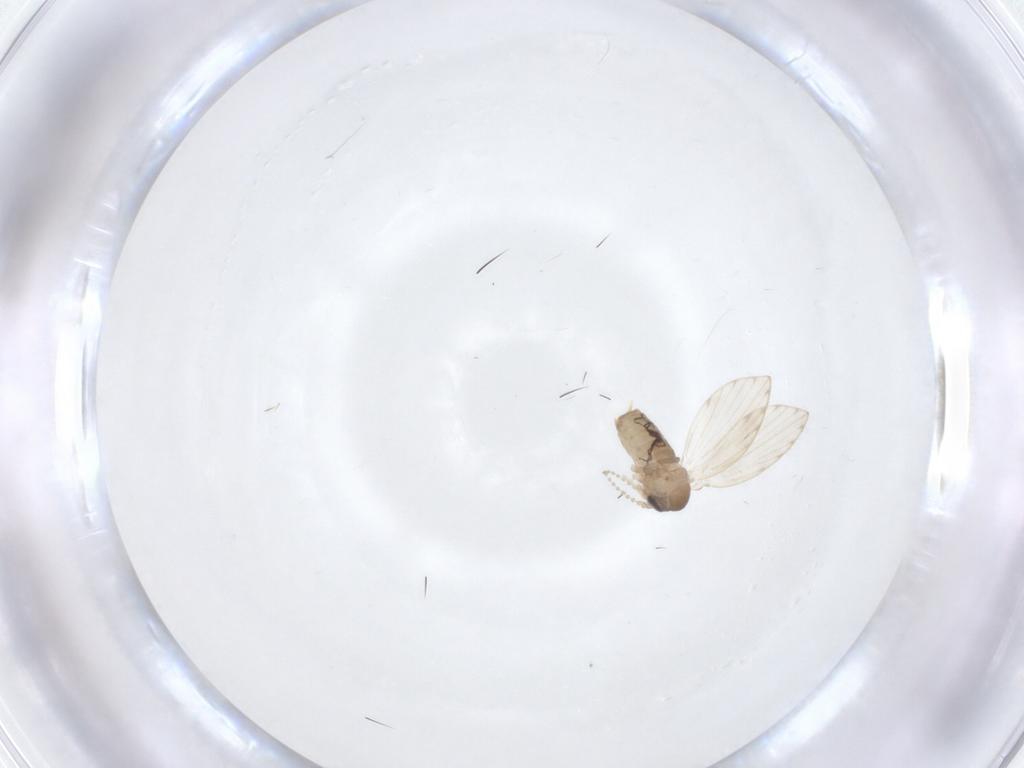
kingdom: Animalia
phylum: Arthropoda
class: Insecta
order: Diptera
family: Psychodidae
